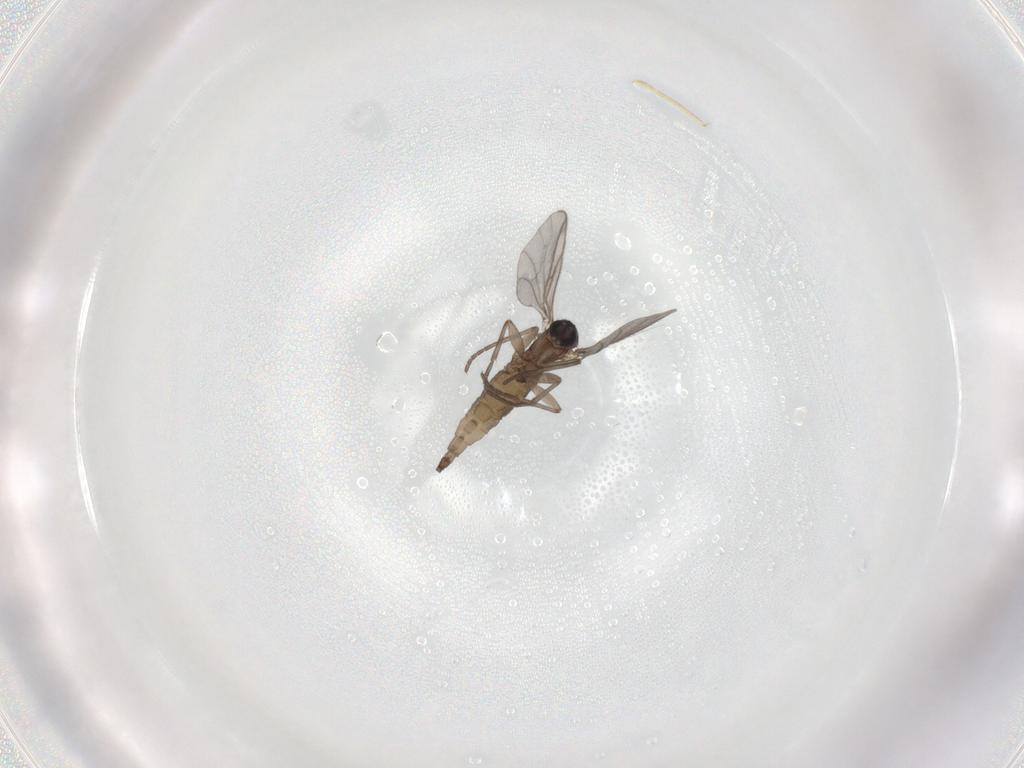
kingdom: Animalia
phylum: Arthropoda
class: Insecta
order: Diptera
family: Sciaridae
